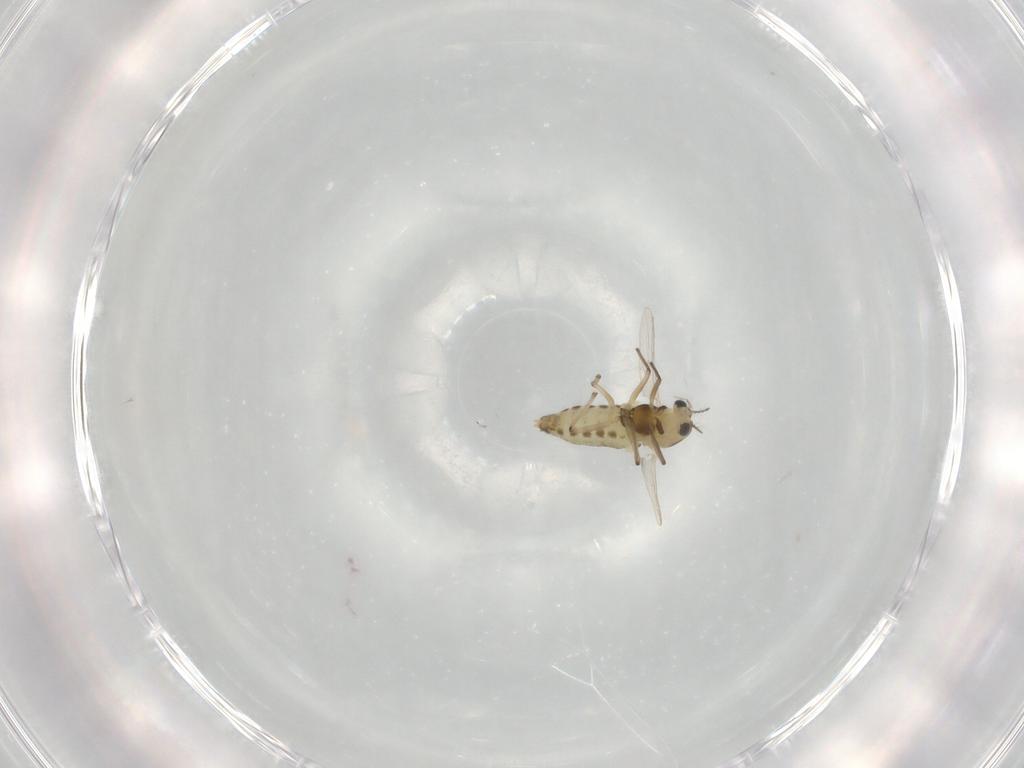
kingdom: Animalia
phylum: Arthropoda
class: Insecta
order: Diptera
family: Chironomidae
